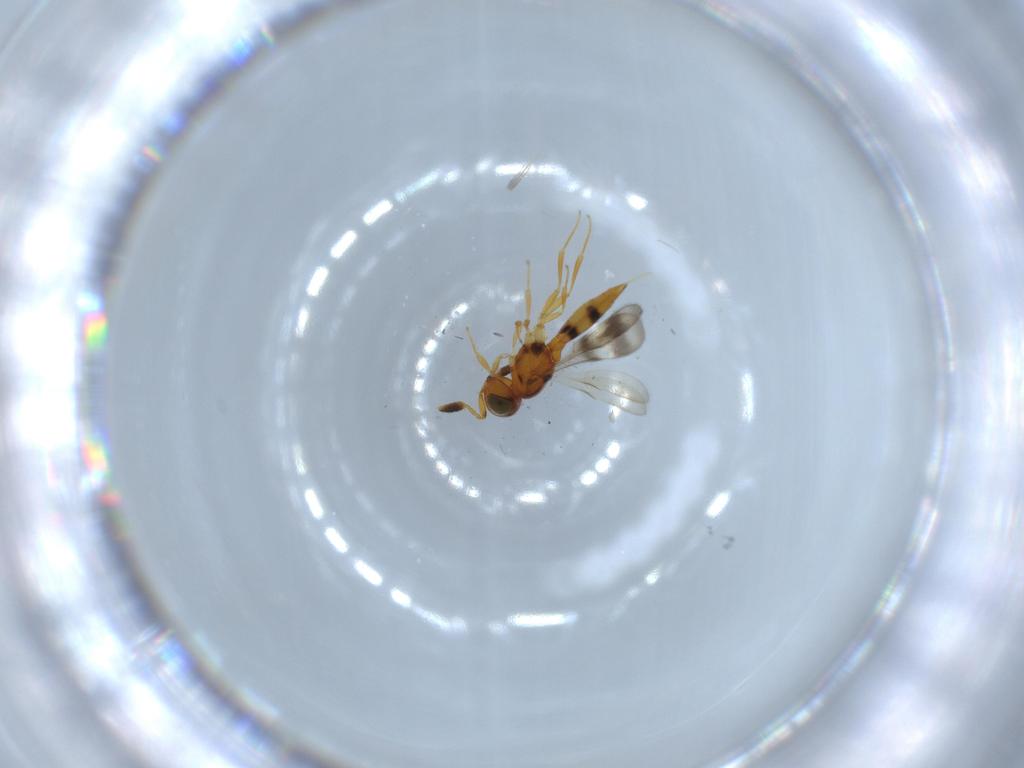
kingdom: Animalia
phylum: Arthropoda
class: Insecta
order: Hymenoptera
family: Scelionidae
